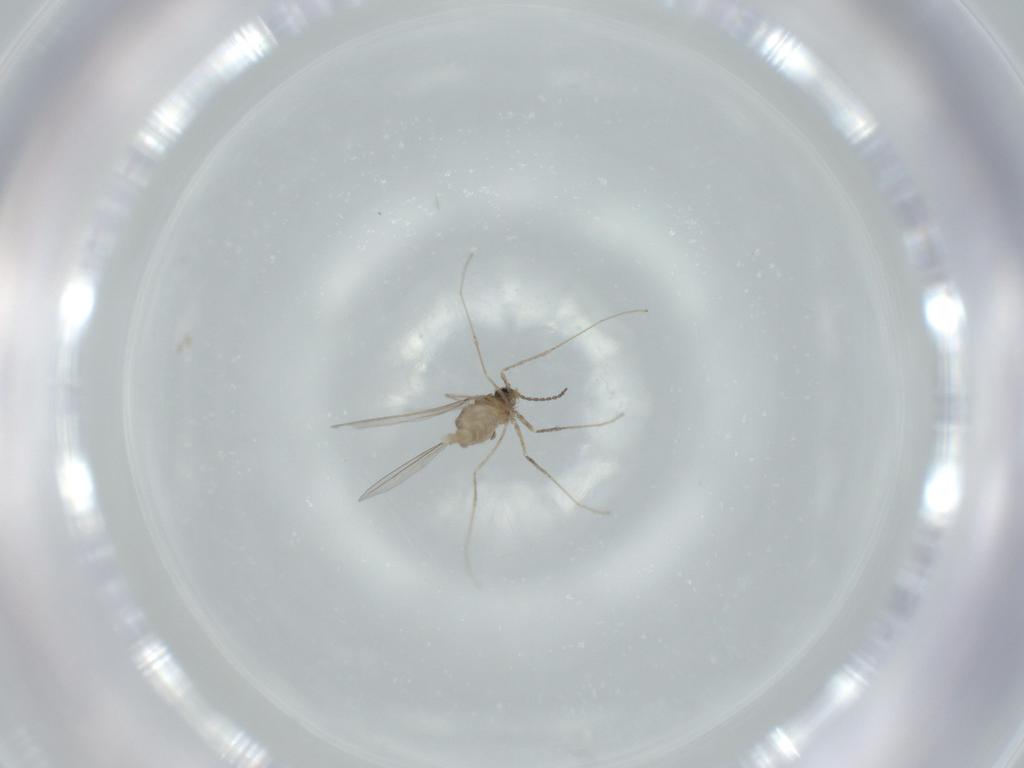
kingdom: Animalia
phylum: Arthropoda
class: Insecta
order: Diptera
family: Cecidomyiidae
